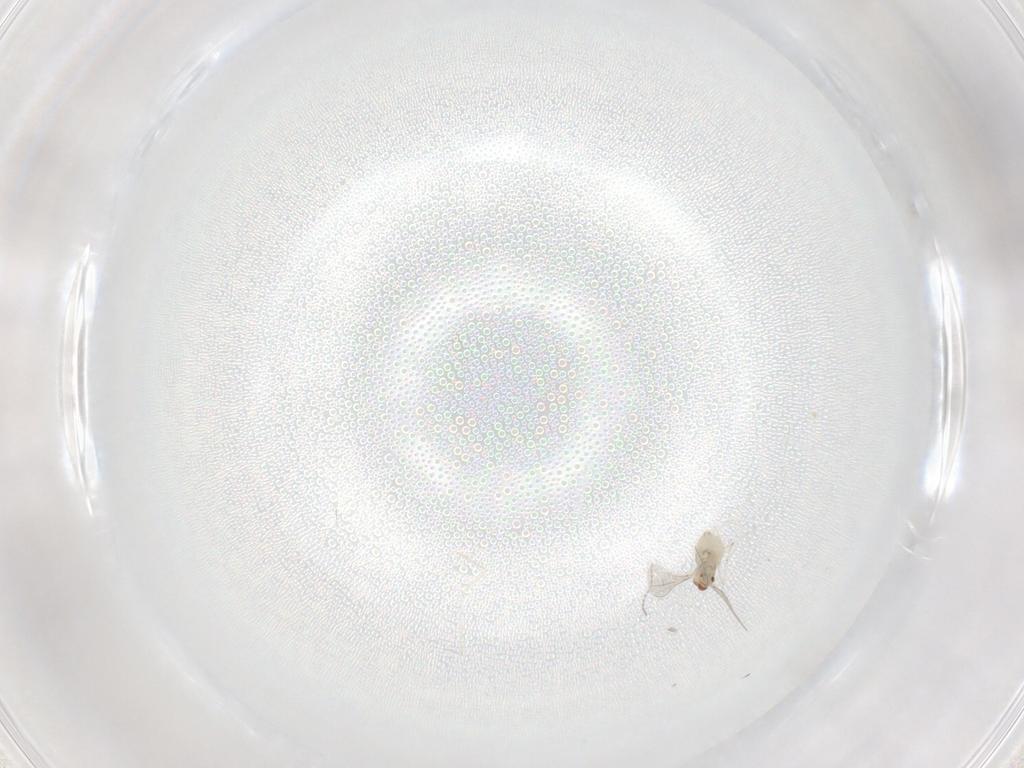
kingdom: Animalia
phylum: Arthropoda
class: Insecta
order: Diptera
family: Cecidomyiidae
